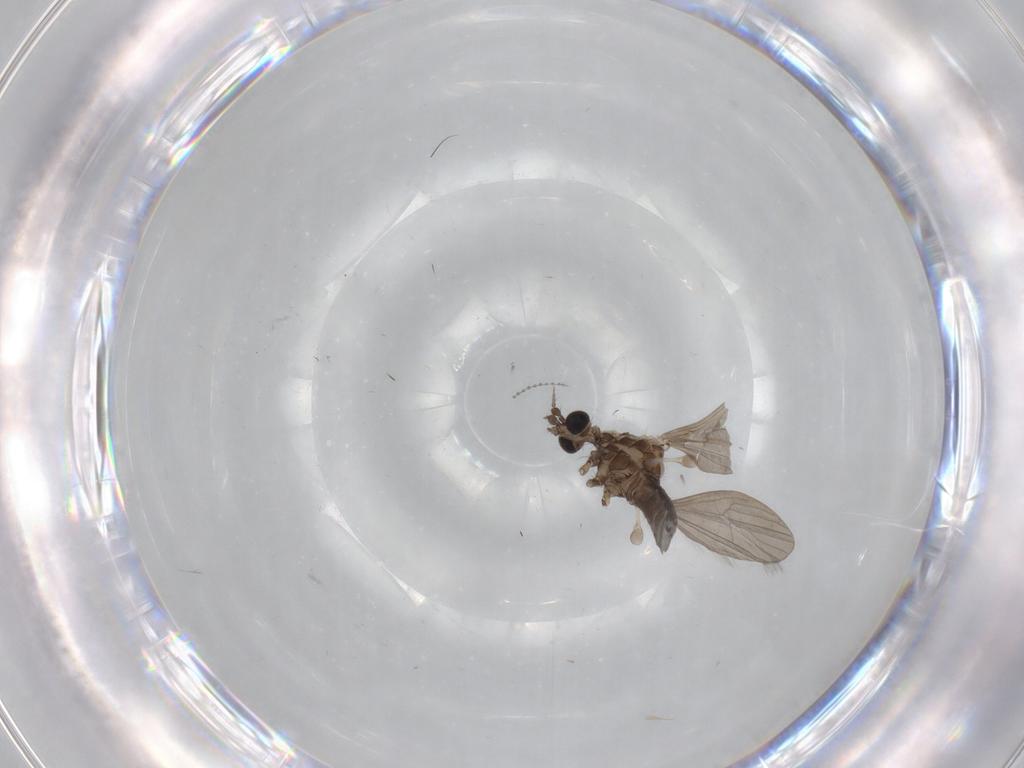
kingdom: Animalia
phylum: Arthropoda
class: Insecta
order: Diptera
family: Limoniidae
